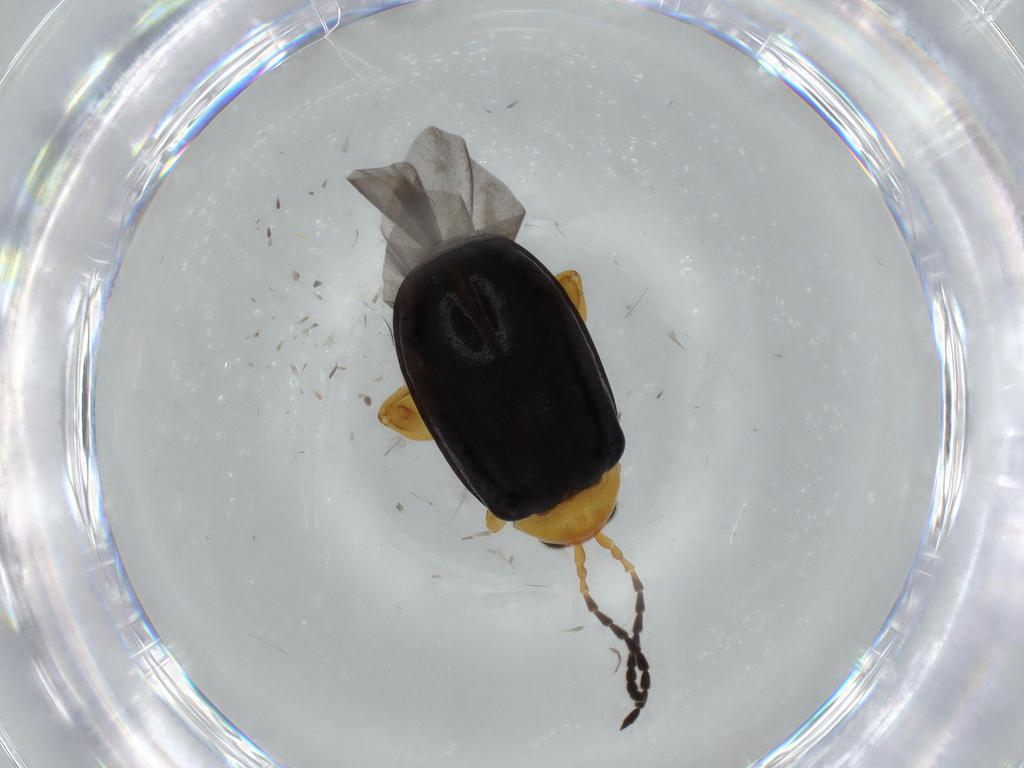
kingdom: Animalia
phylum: Arthropoda
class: Insecta
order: Coleoptera
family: Chrysomelidae
